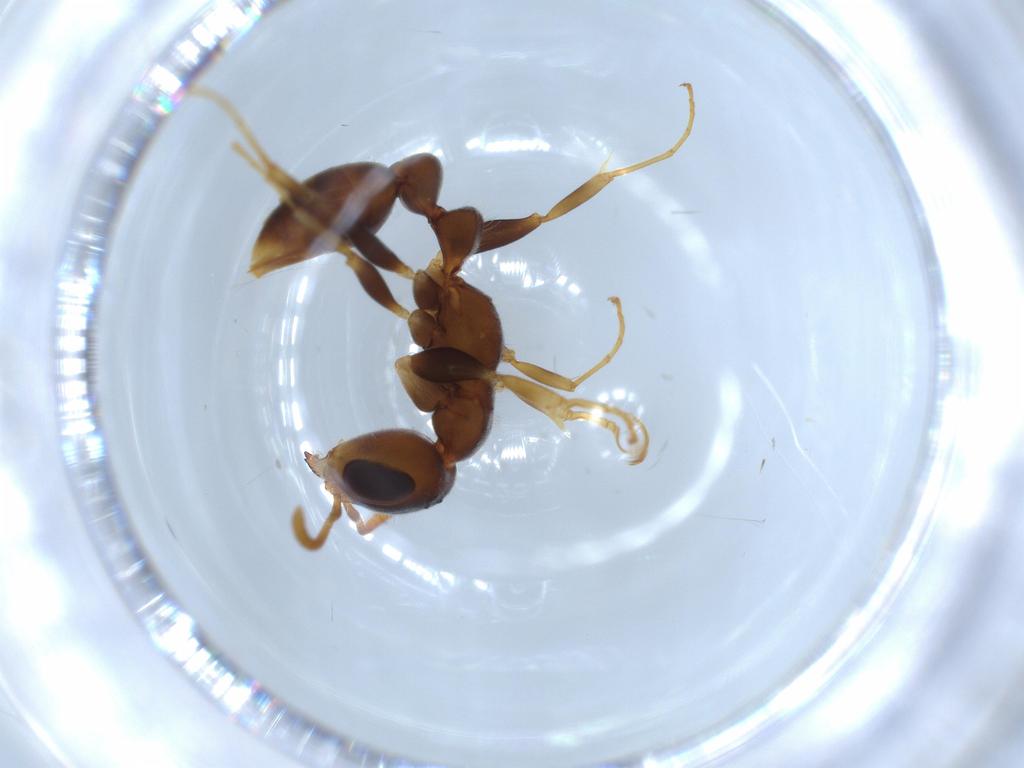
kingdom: Animalia
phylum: Arthropoda
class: Insecta
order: Hymenoptera
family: Formicidae
